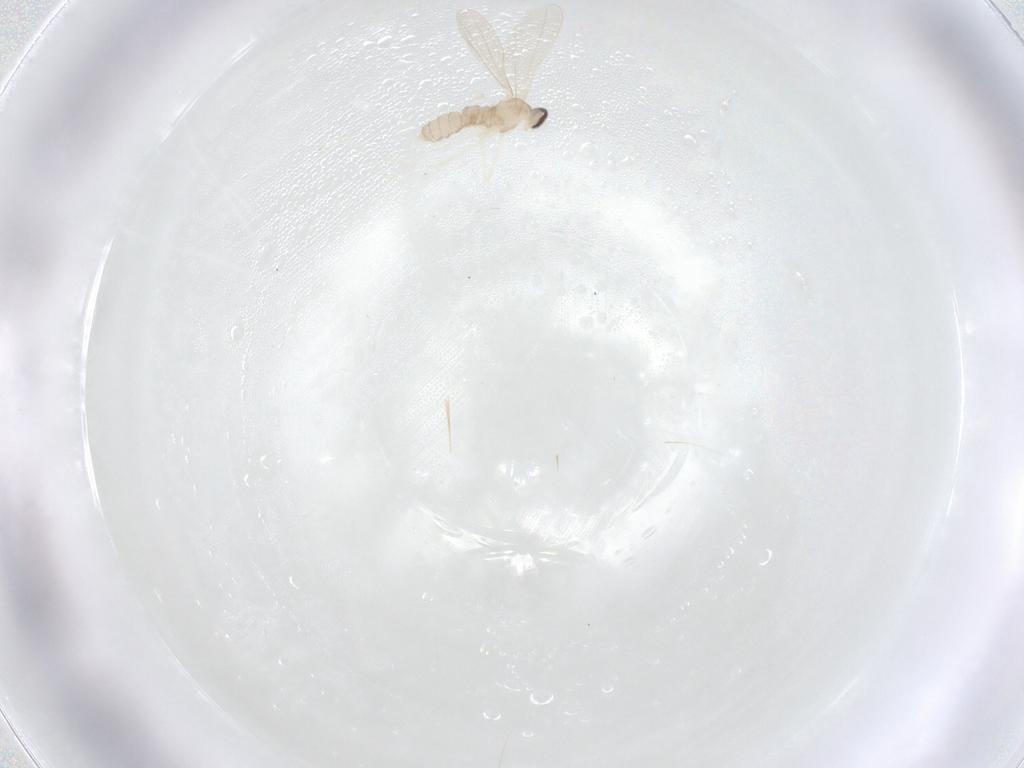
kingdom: Animalia
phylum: Arthropoda
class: Insecta
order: Diptera
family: Cecidomyiidae
